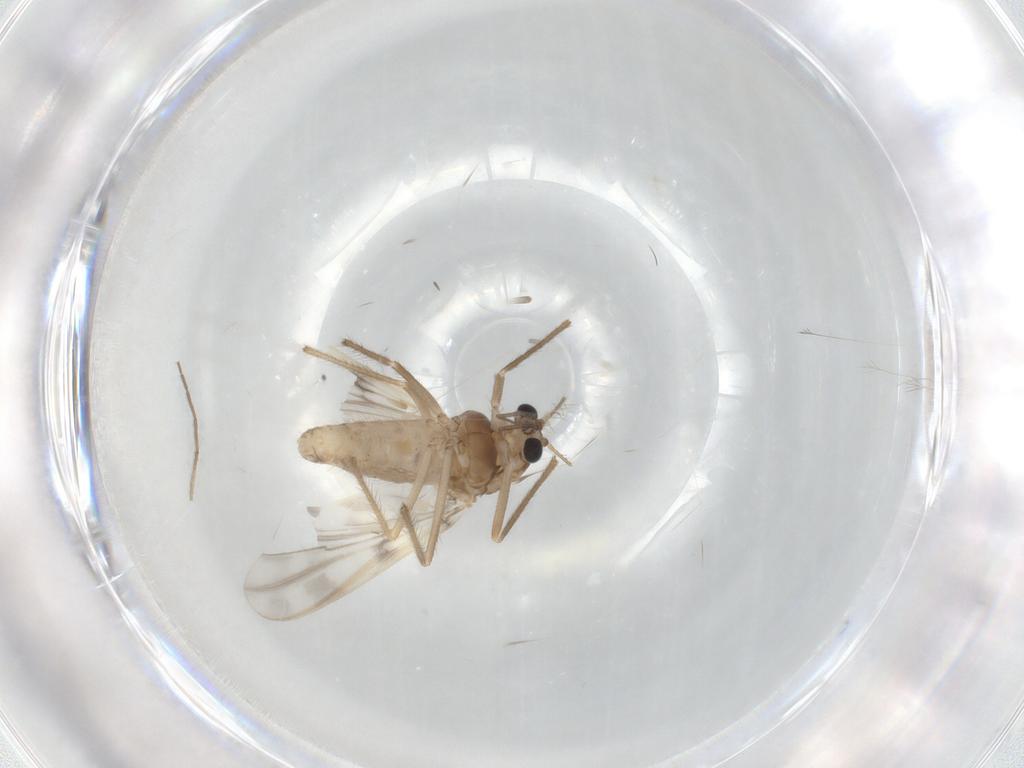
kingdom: Animalia
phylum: Arthropoda
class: Insecta
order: Diptera
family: Chironomidae
